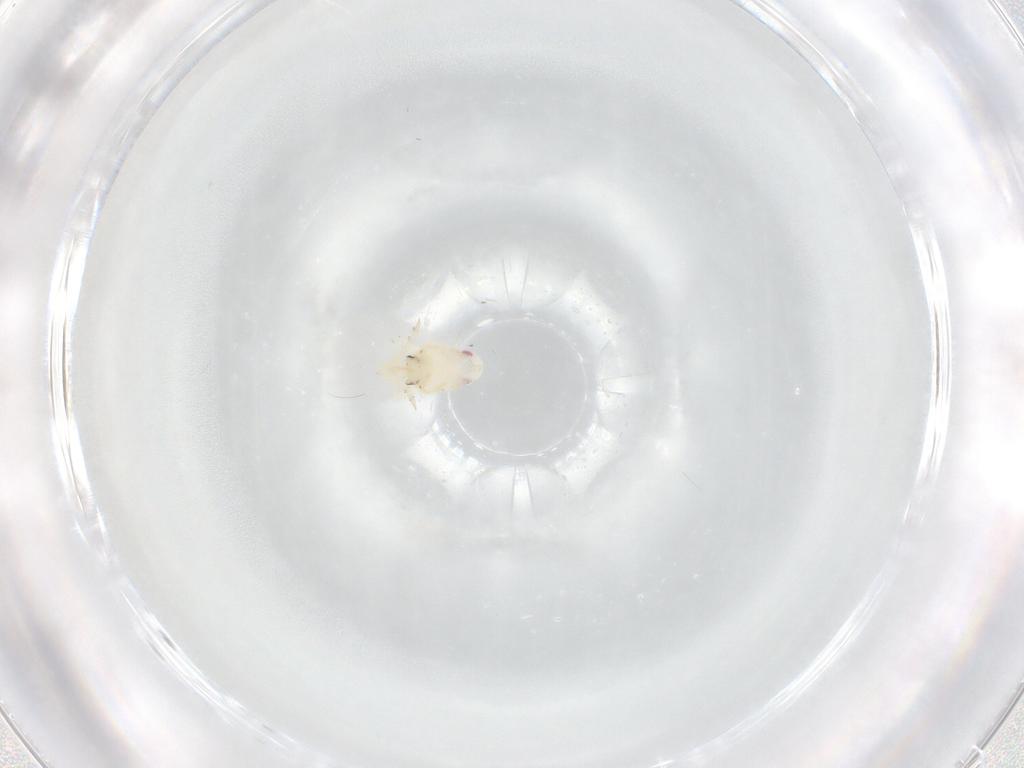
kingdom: Animalia
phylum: Arthropoda
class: Insecta
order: Hemiptera
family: Flatidae
